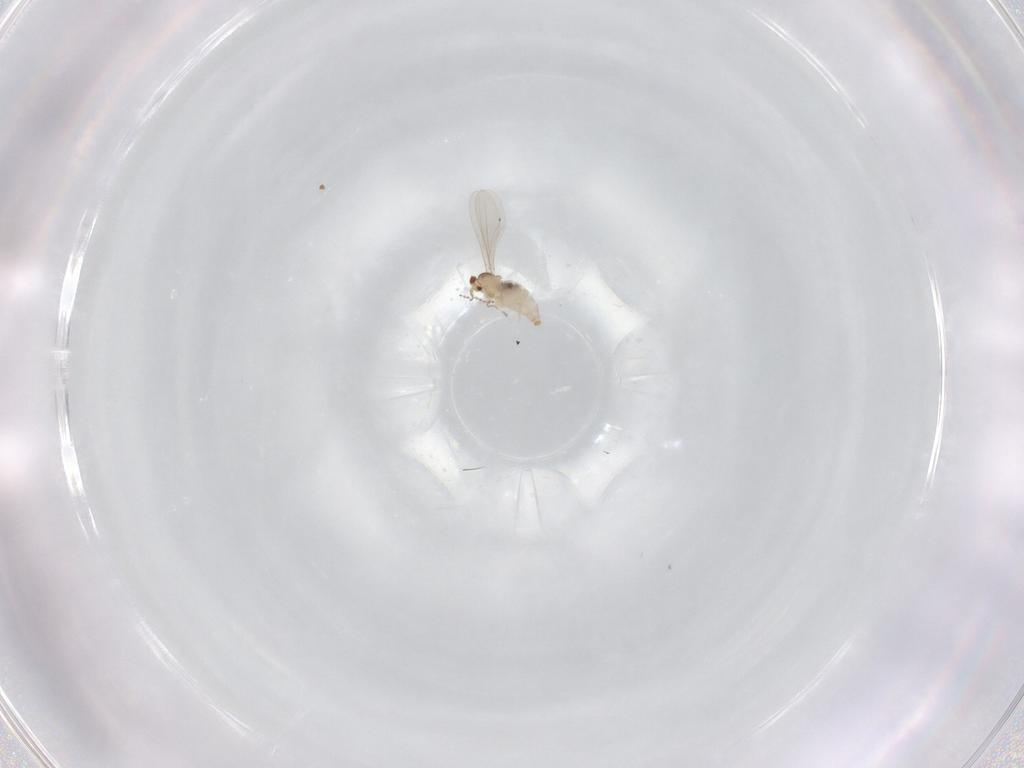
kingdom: Animalia
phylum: Arthropoda
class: Insecta
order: Diptera
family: Cecidomyiidae
